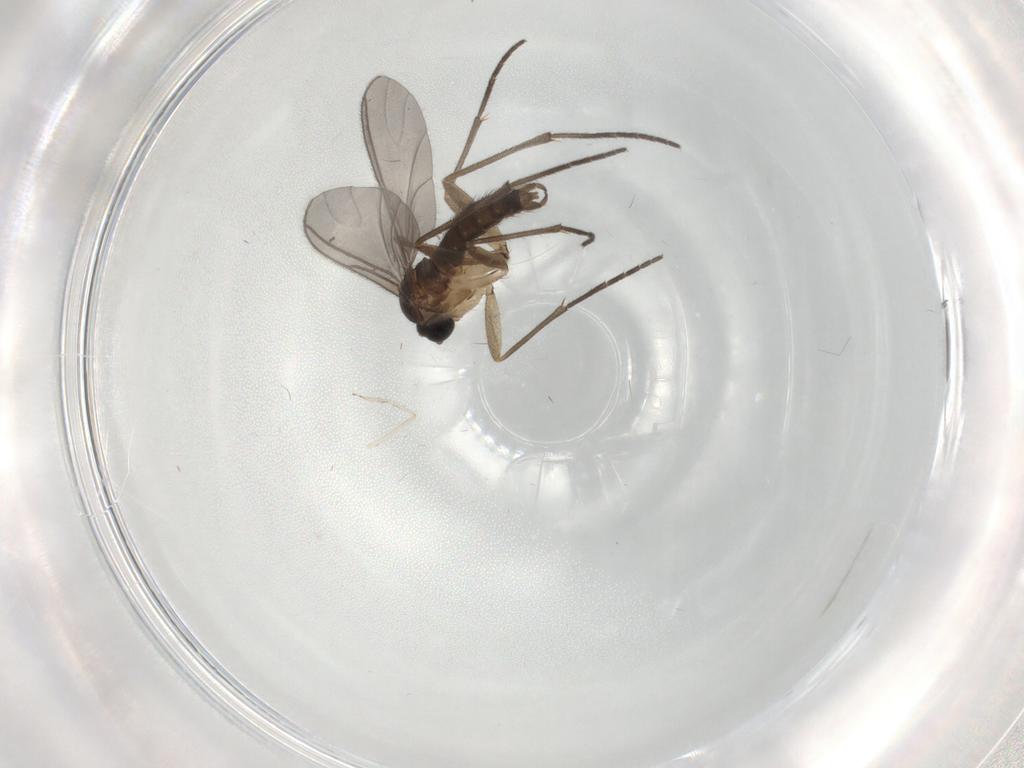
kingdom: Animalia
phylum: Arthropoda
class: Insecta
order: Diptera
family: Sciaridae
